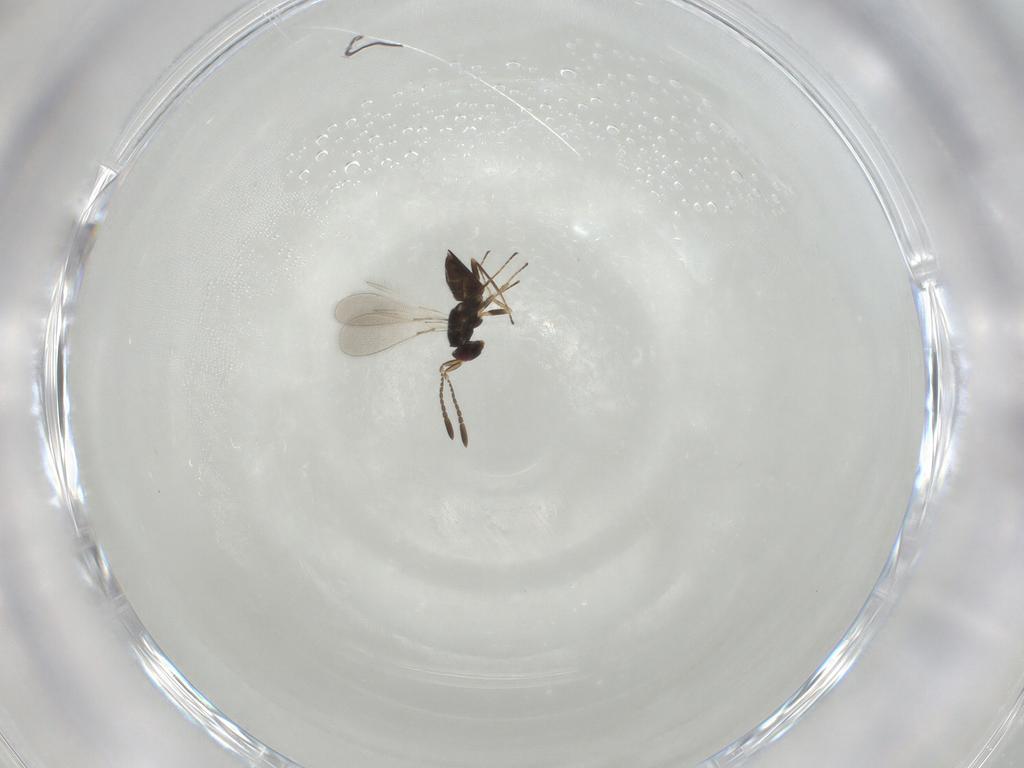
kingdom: Animalia
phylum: Arthropoda
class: Insecta
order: Hymenoptera
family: Mymaridae
